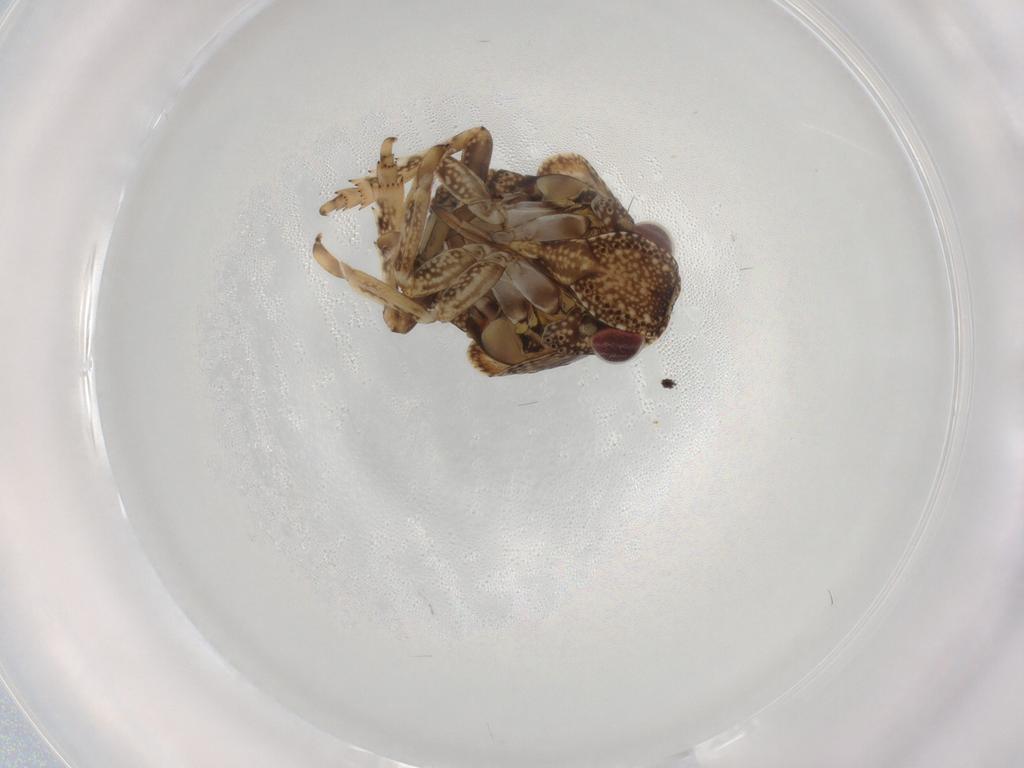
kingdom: Animalia
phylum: Arthropoda
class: Insecta
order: Hemiptera
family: Acanaloniidae
